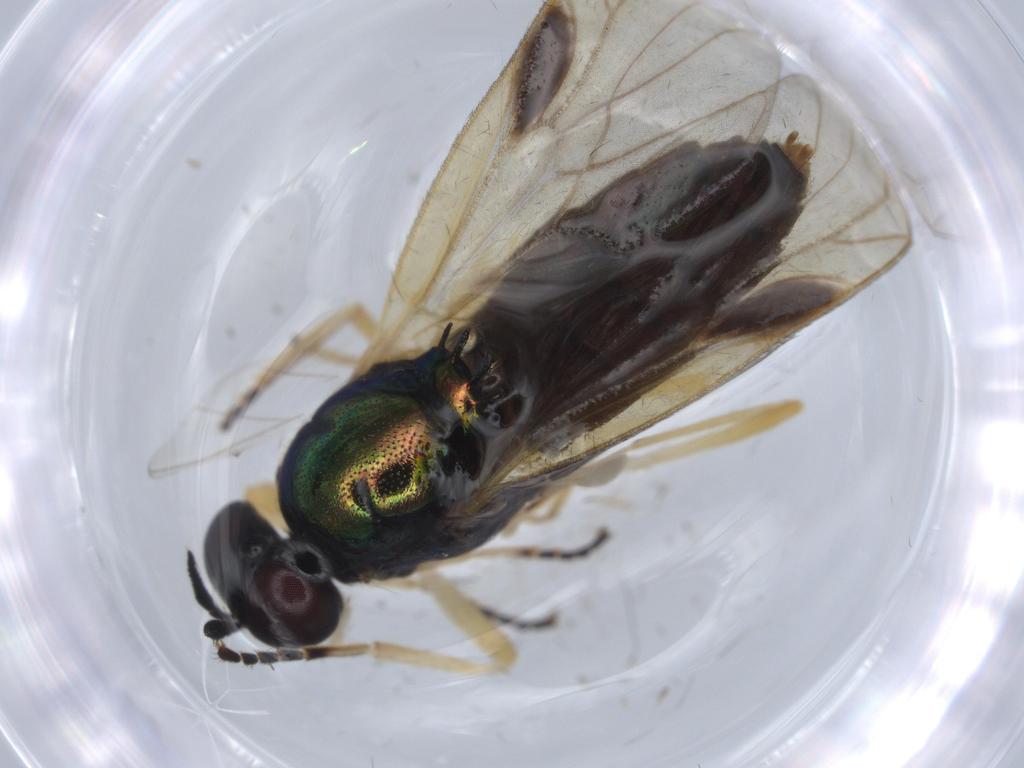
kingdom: Animalia
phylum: Arthropoda
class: Insecta
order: Diptera
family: Stratiomyidae
